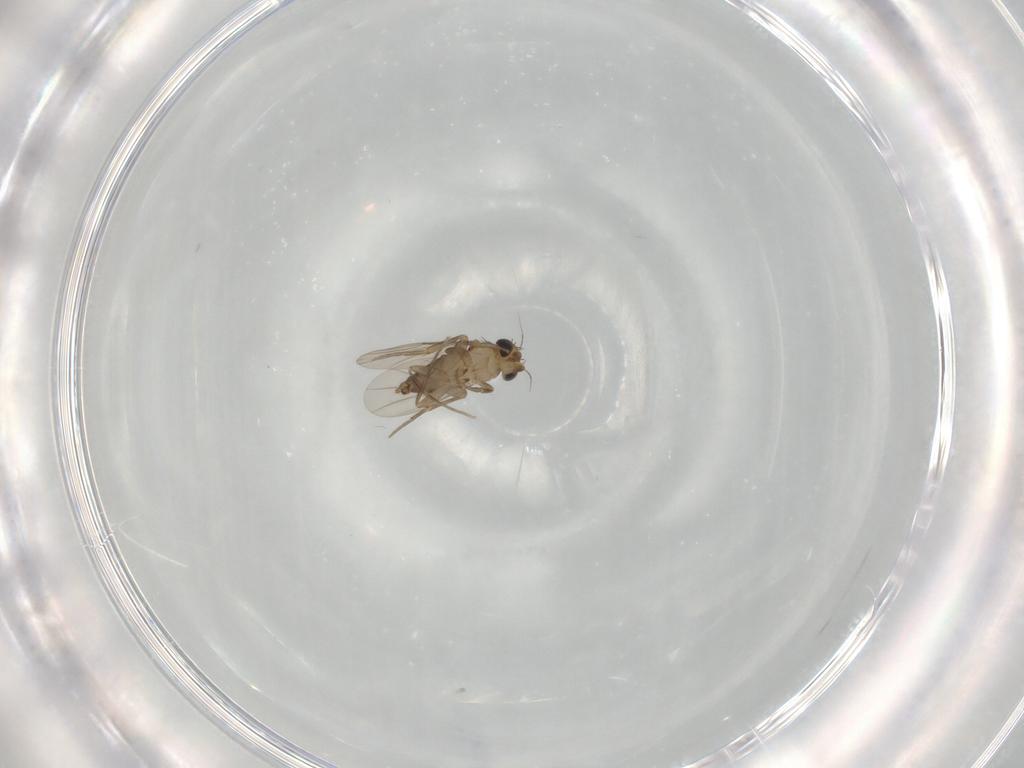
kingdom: Animalia
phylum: Arthropoda
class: Insecta
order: Diptera
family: Phoridae
